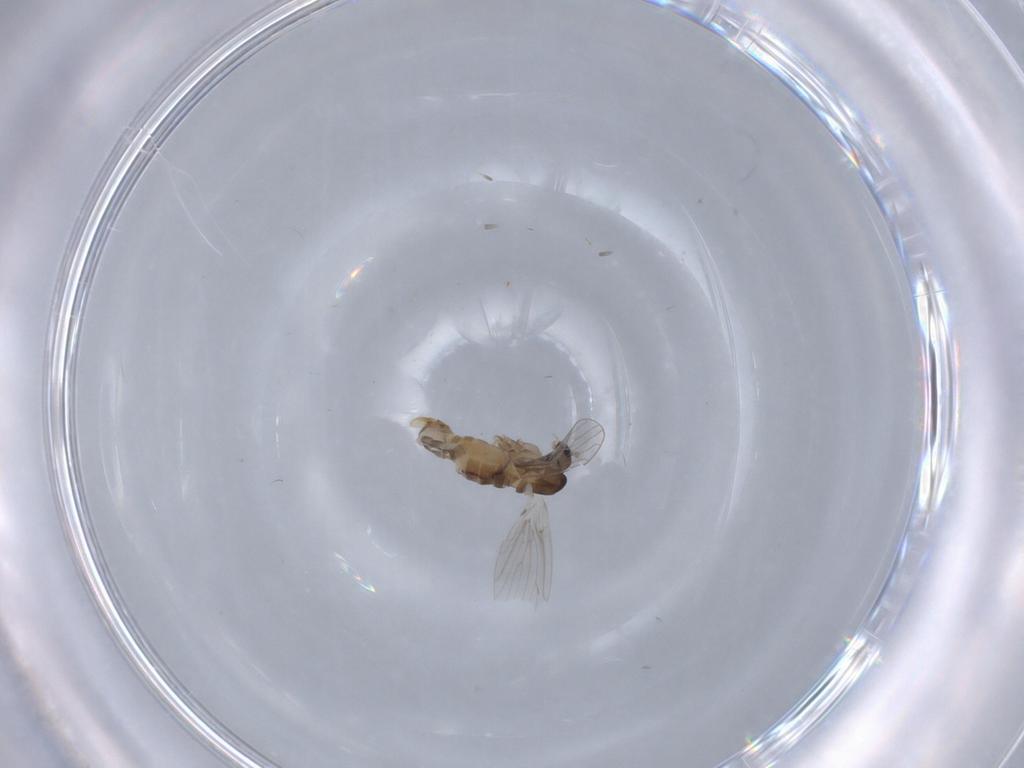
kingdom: Animalia
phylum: Arthropoda
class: Insecta
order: Diptera
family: Psychodidae
